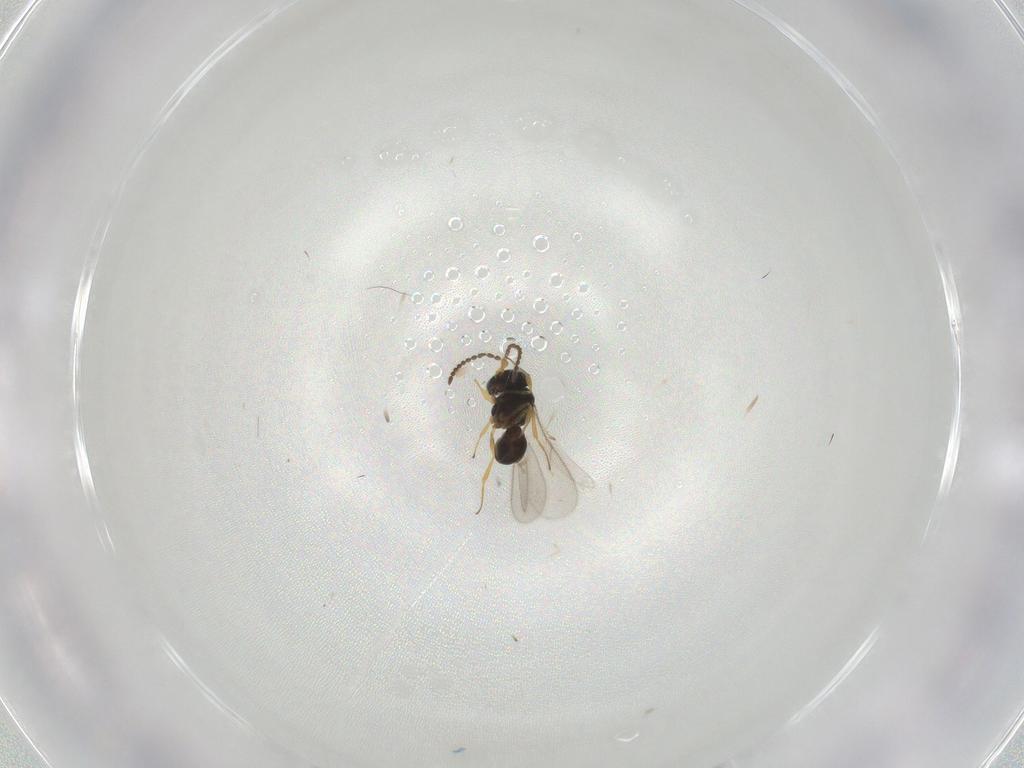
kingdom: Animalia
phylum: Arthropoda
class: Insecta
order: Hymenoptera
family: Scelionidae
